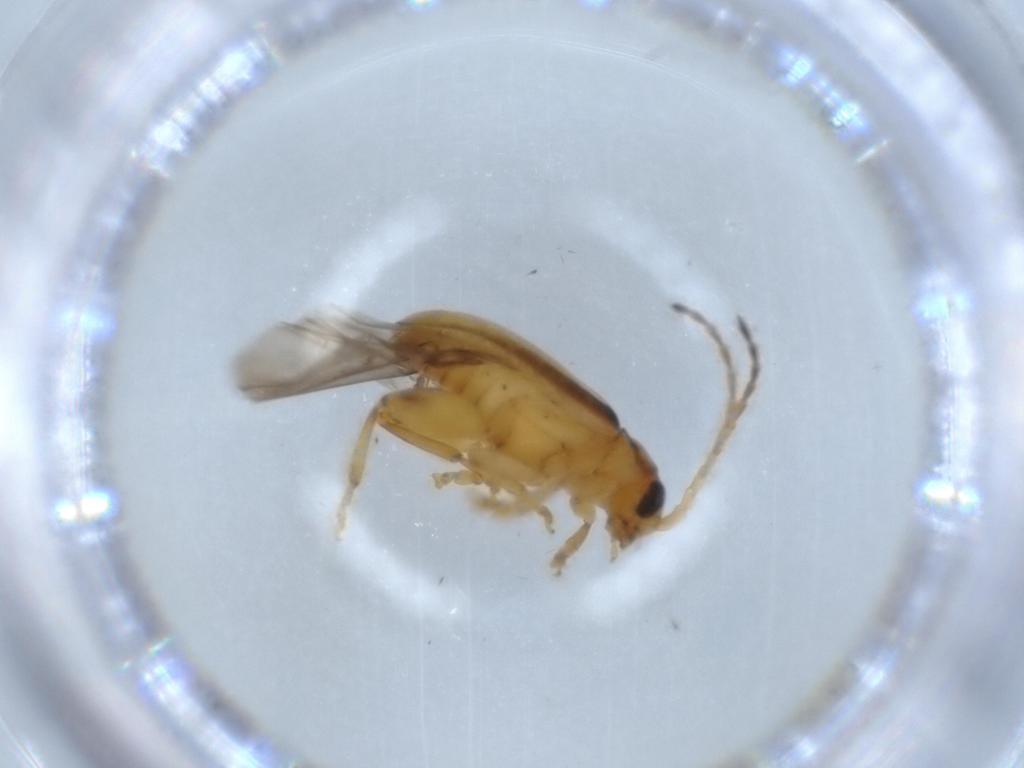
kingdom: Animalia
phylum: Arthropoda
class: Insecta
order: Coleoptera
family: Chrysomelidae
